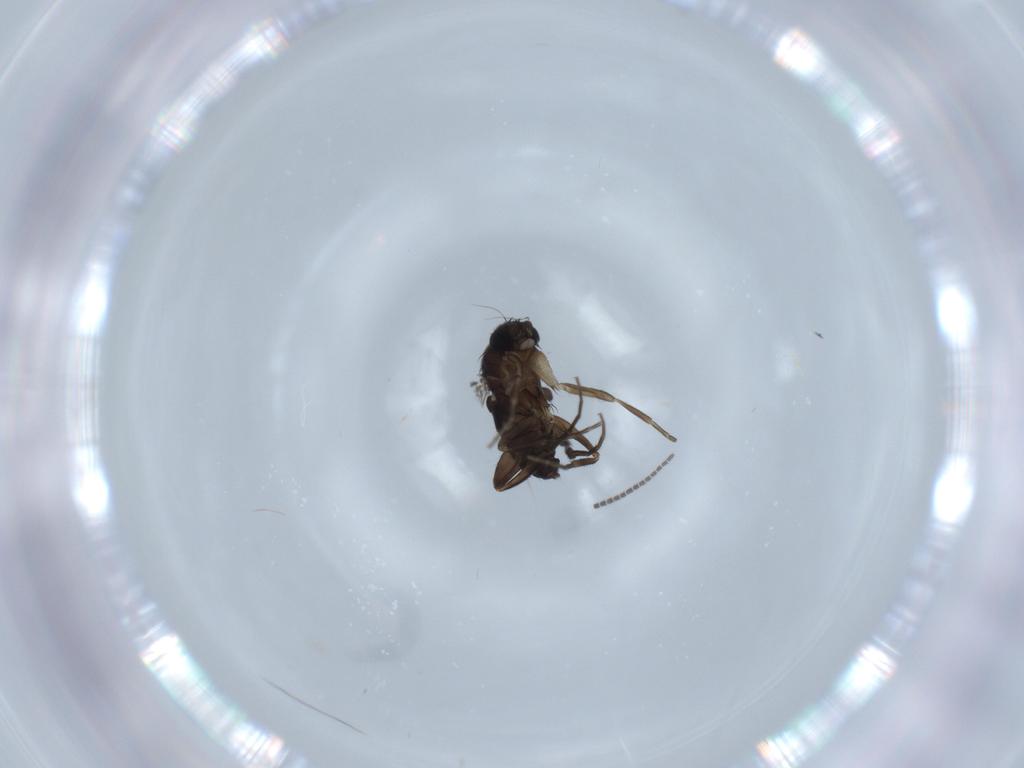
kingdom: Animalia
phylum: Arthropoda
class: Insecta
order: Diptera
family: Phoridae
